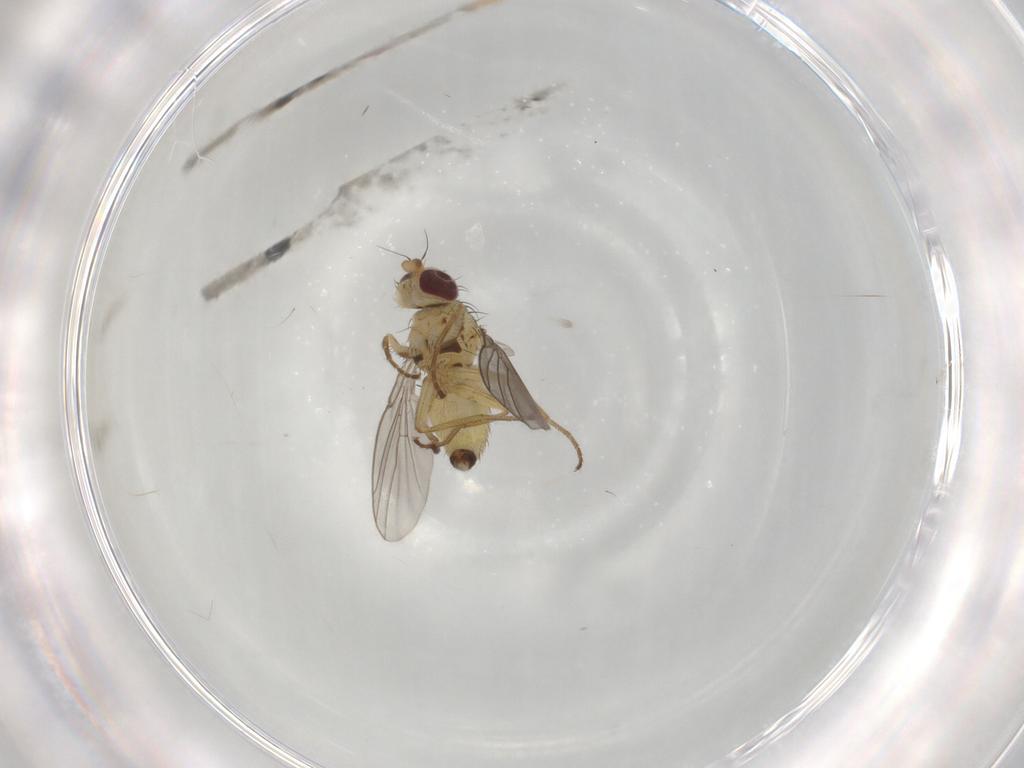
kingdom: Animalia
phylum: Arthropoda
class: Insecta
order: Diptera
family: Agromyzidae
